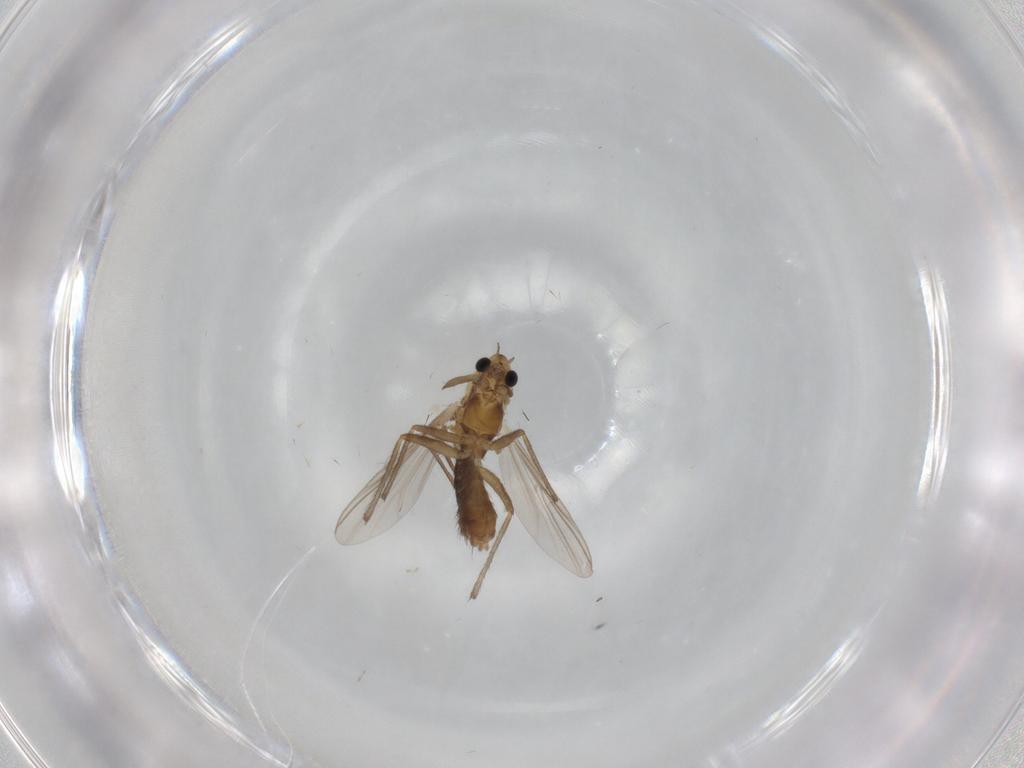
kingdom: Animalia
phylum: Arthropoda
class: Insecta
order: Diptera
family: Chironomidae
